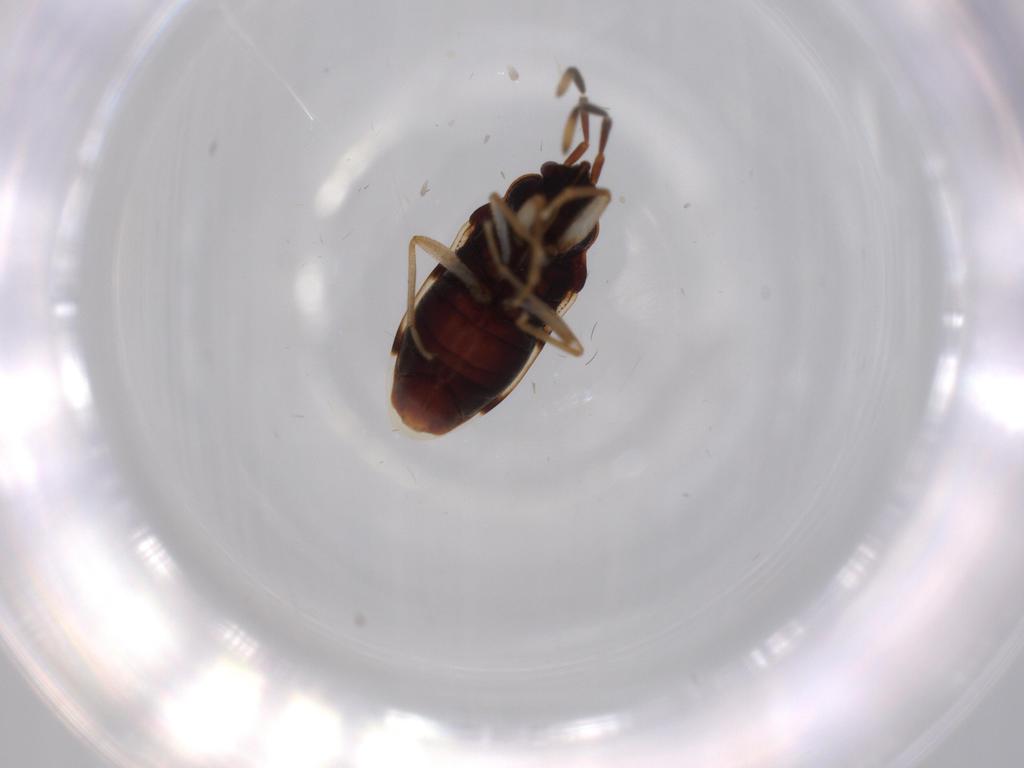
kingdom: Animalia
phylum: Arthropoda
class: Insecta
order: Hemiptera
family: Rhyparochromidae
